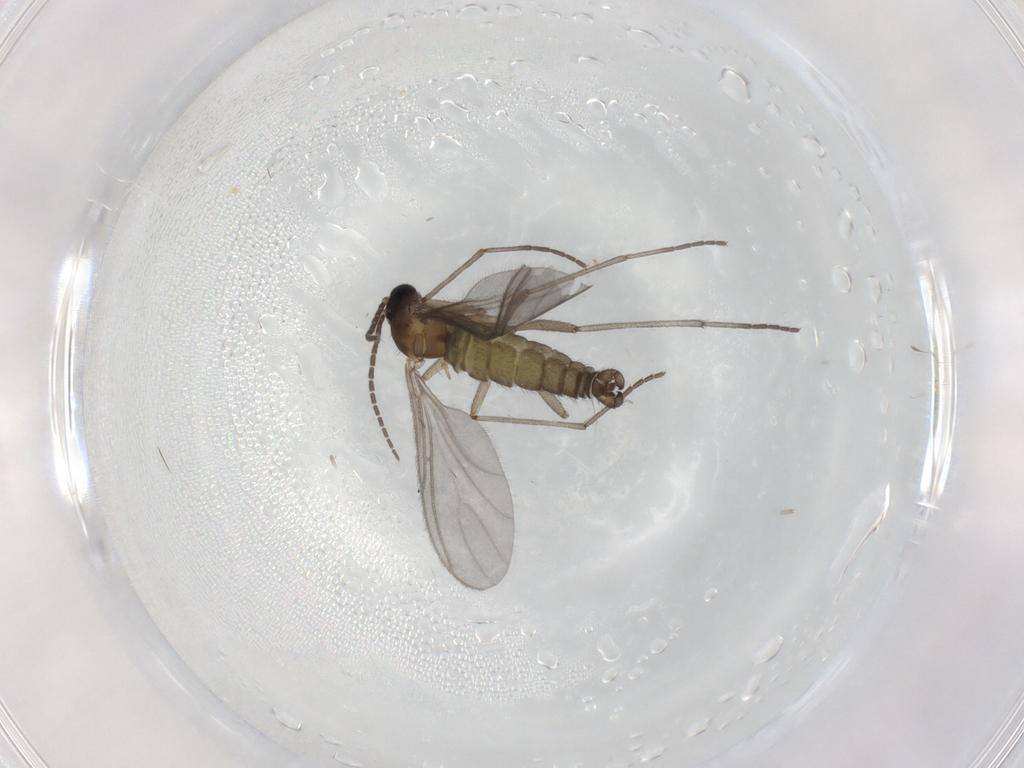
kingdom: Animalia
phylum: Arthropoda
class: Insecta
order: Diptera
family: Sciaridae
